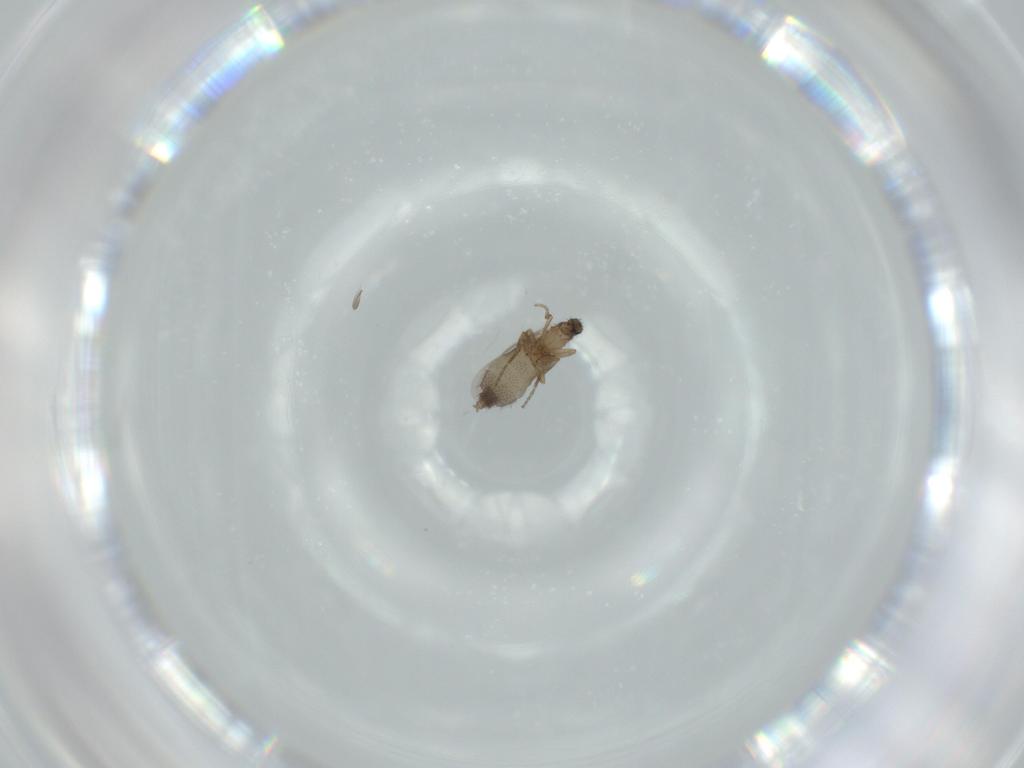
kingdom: Animalia
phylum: Arthropoda
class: Insecta
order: Diptera
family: Phoridae
